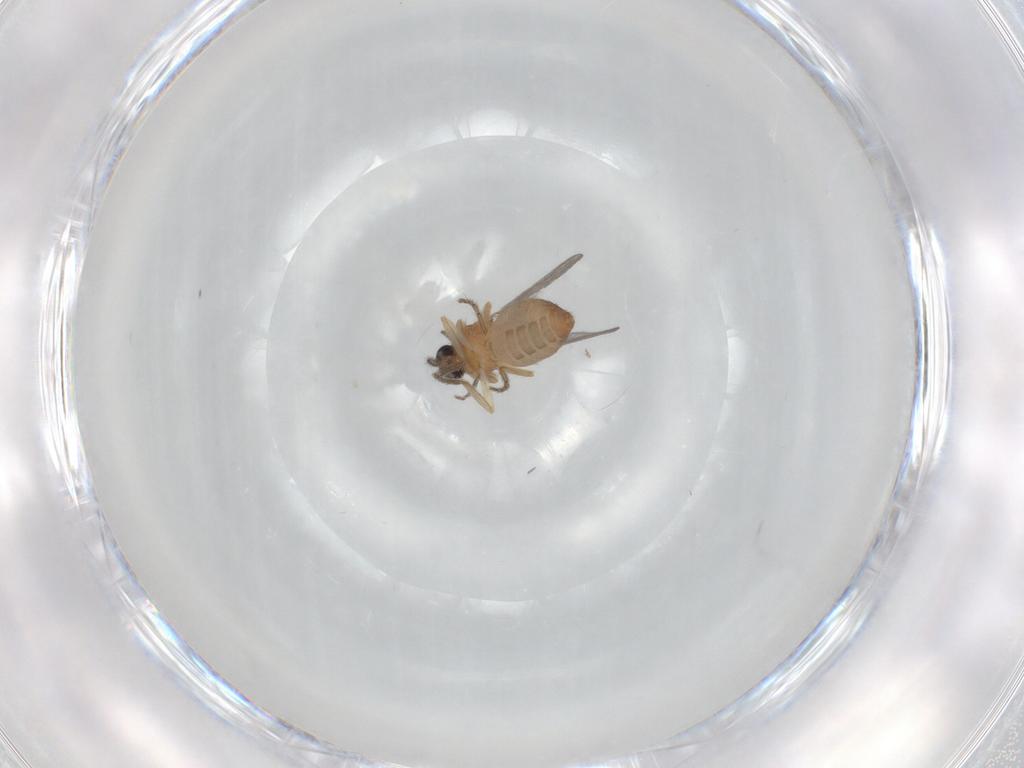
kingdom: Animalia
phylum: Arthropoda
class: Insecta
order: Diptera
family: Ceratopogonidae
